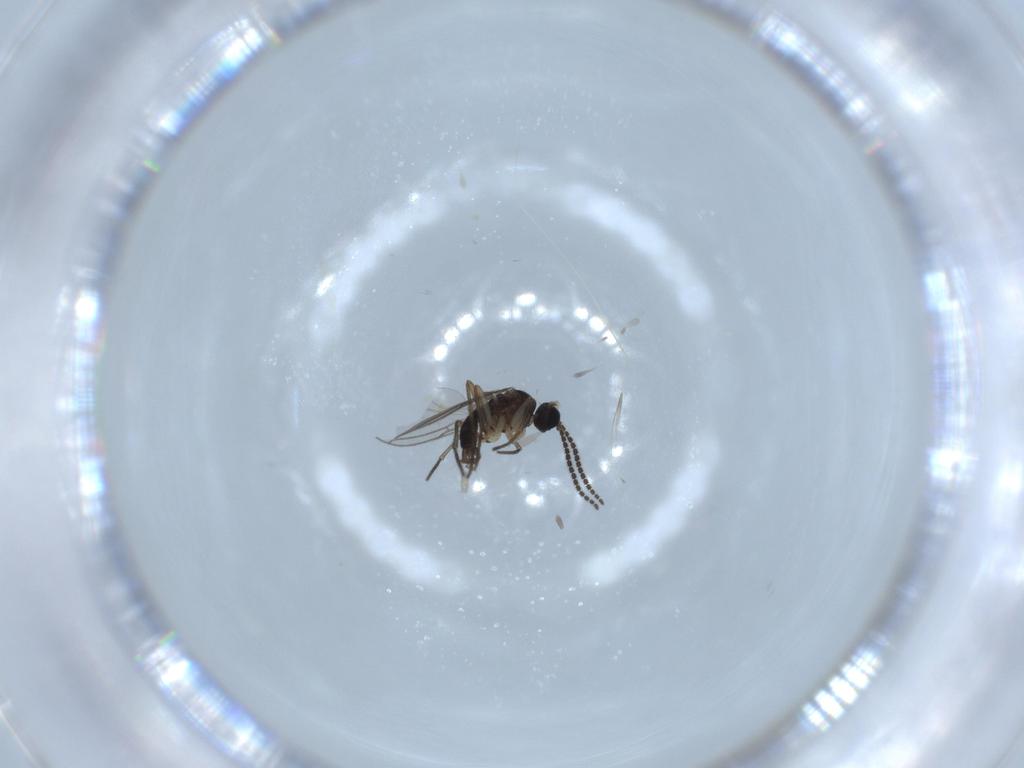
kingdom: Animalia
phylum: Arthropoda
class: Insecta
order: Diptera
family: Sciaridae
